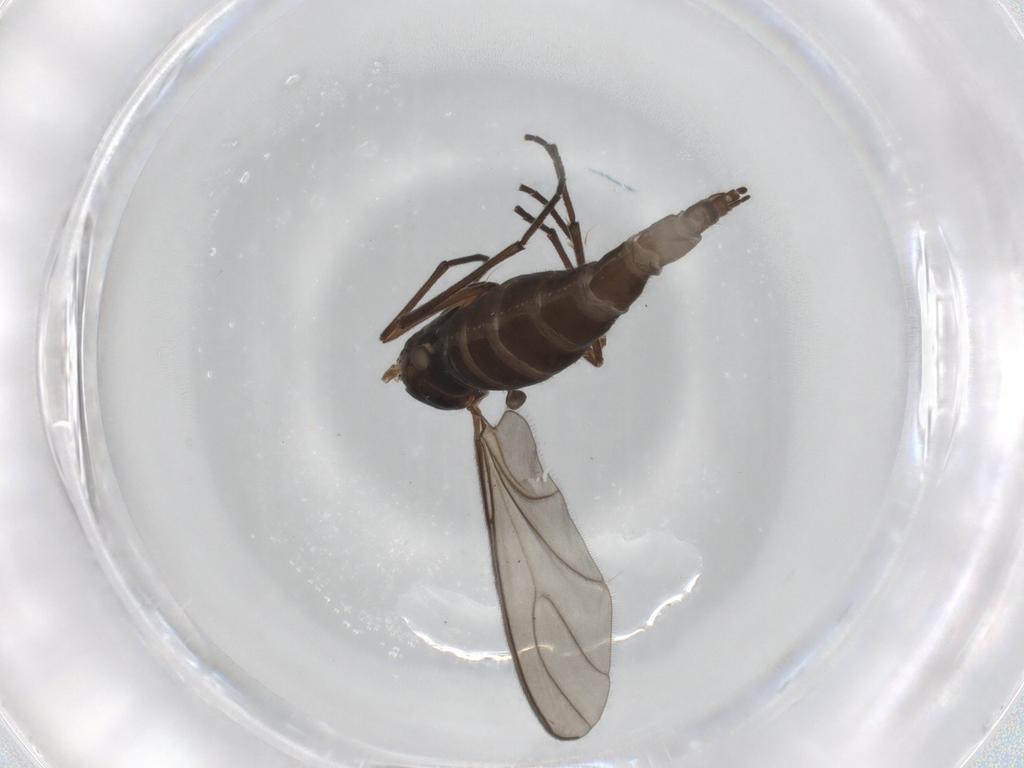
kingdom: Animalia
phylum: Arthropoda
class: Insecta
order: Diptera
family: Sciaridae
